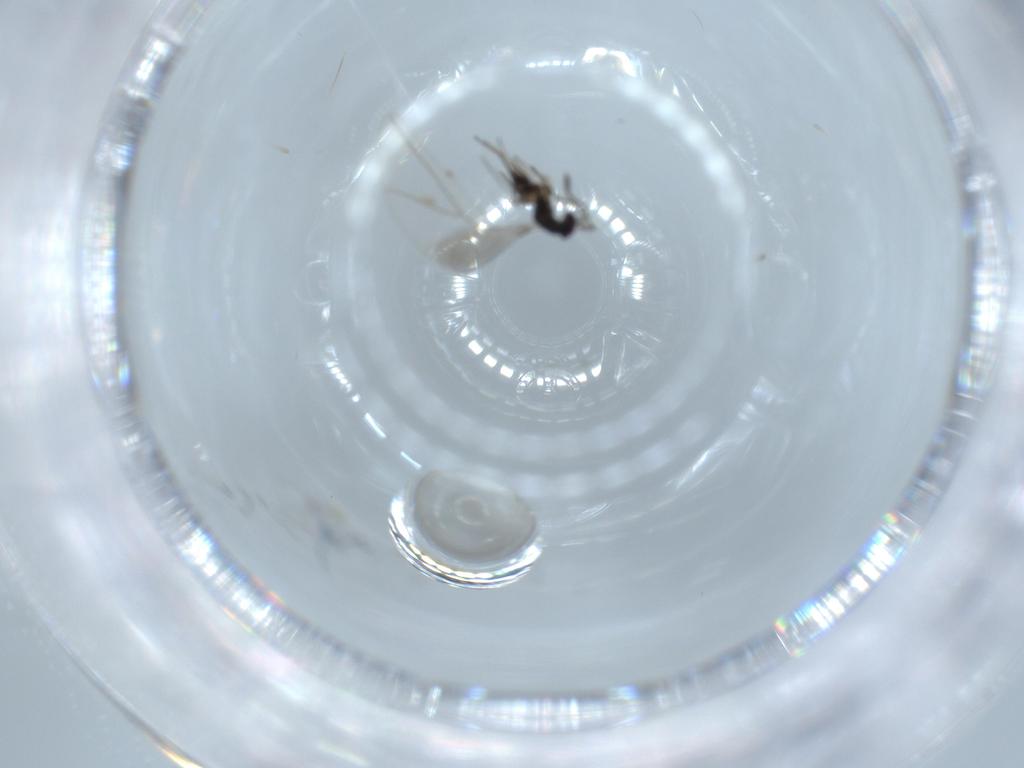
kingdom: Animalia
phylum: Arthropoda
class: Insecta
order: Hymenoptera
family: Mymaridae
